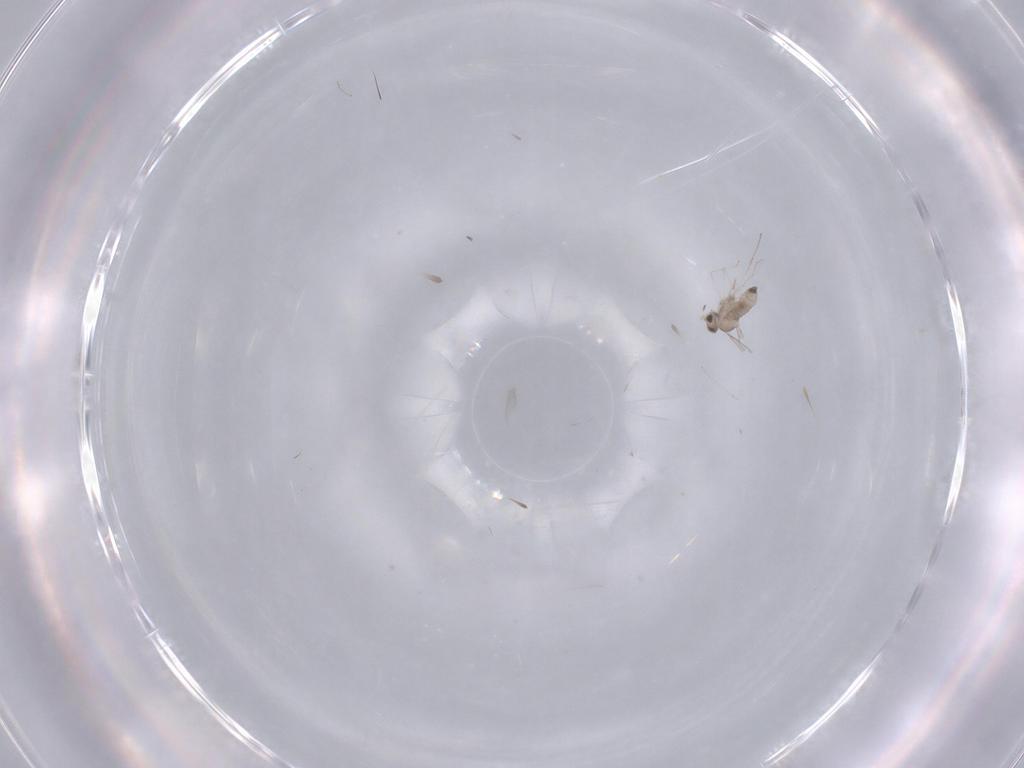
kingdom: Animalia
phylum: Arthropoda
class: Insecta
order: Diptera
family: Cecidomyiidae
